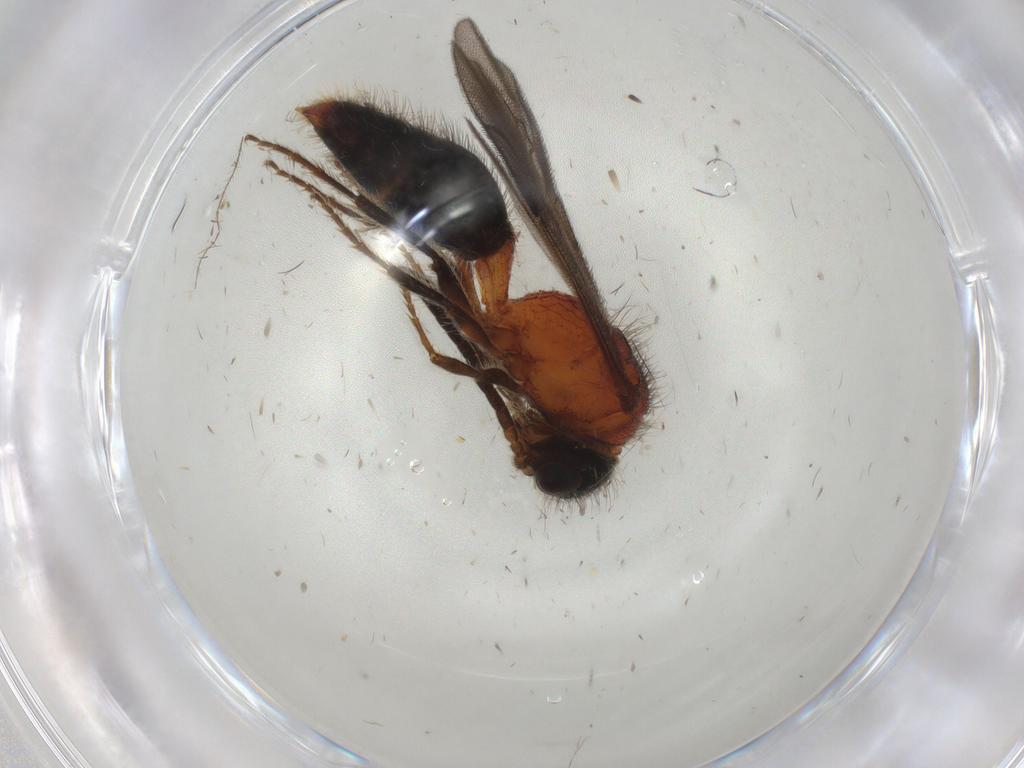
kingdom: Animalia
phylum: Arthropoda
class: Insecta
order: Hymenoptera
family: Mutillidae
